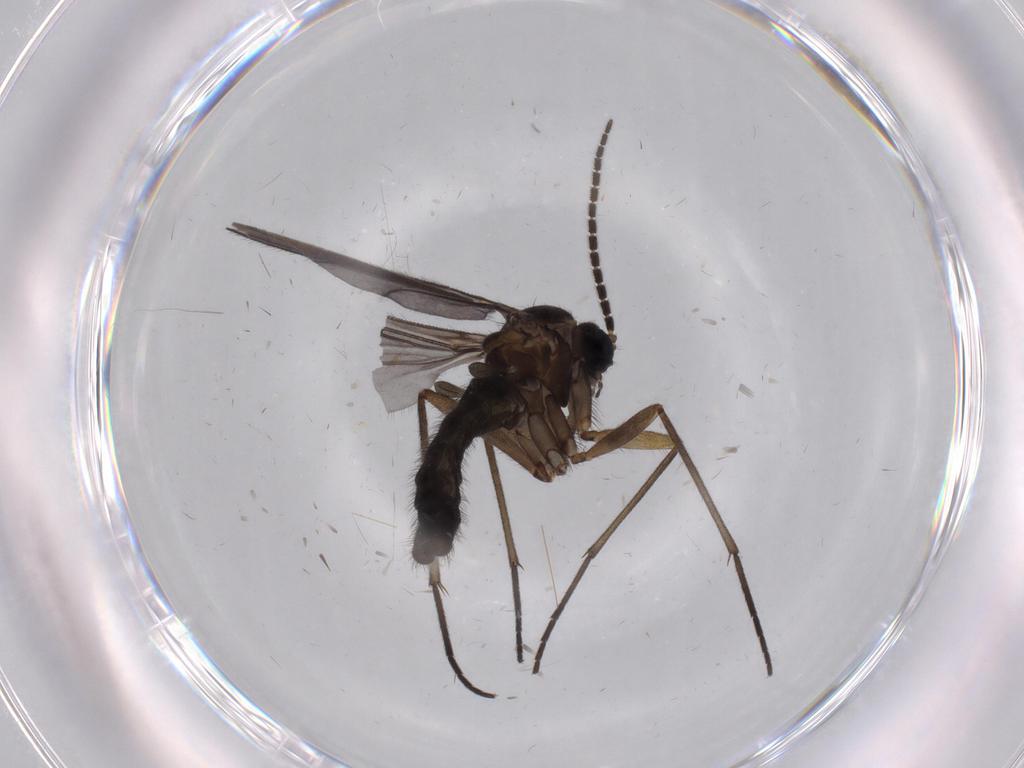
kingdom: Animalia
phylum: Arthropoda
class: Insecta
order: Diptera
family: Sciaridae
